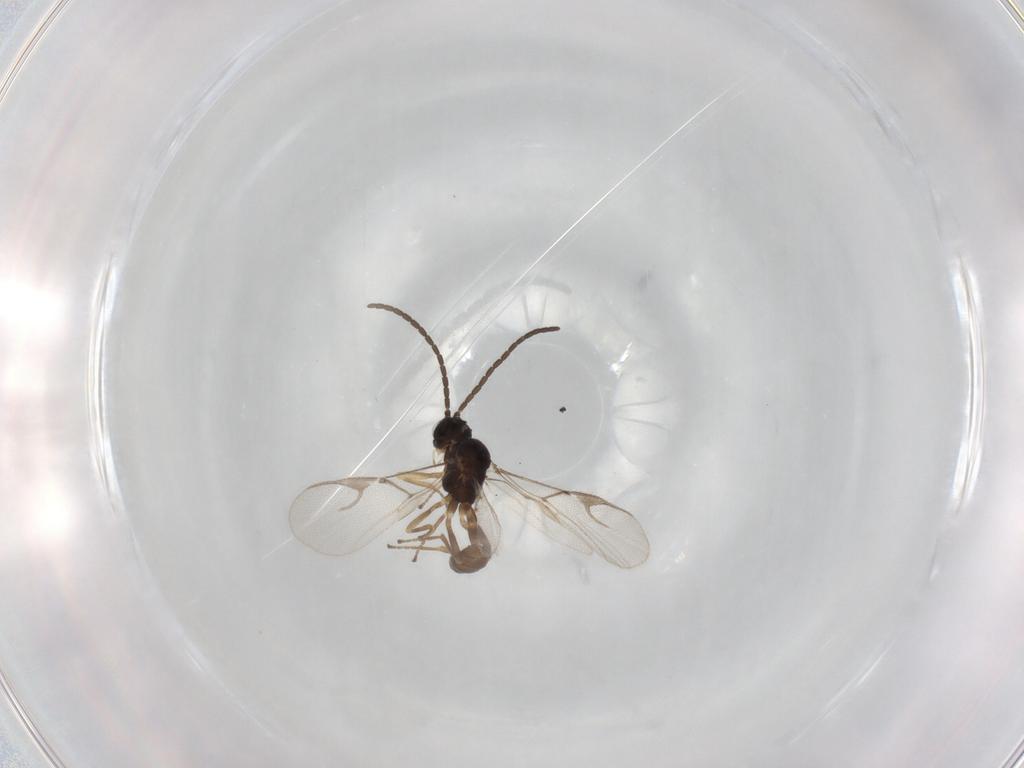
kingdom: Animalia
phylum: Arthropoda
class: Insecta
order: Hymenoptera
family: Braconidae
